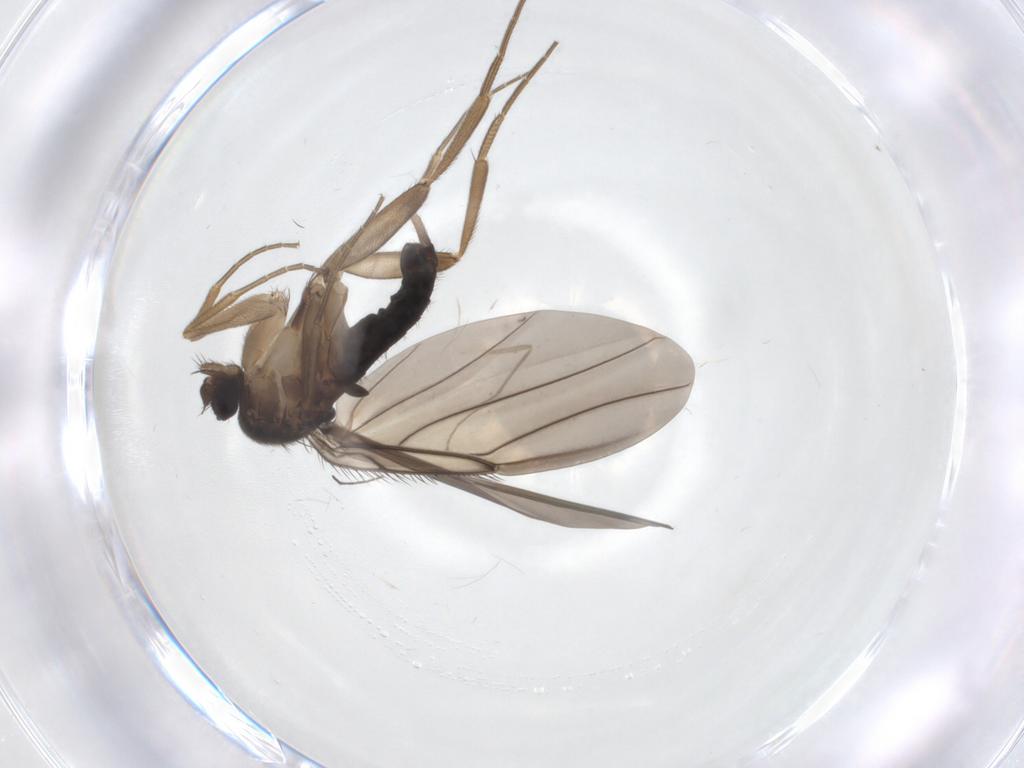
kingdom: Animalia
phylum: Arthropoda
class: Insecta
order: Diptera
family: Phoridae
